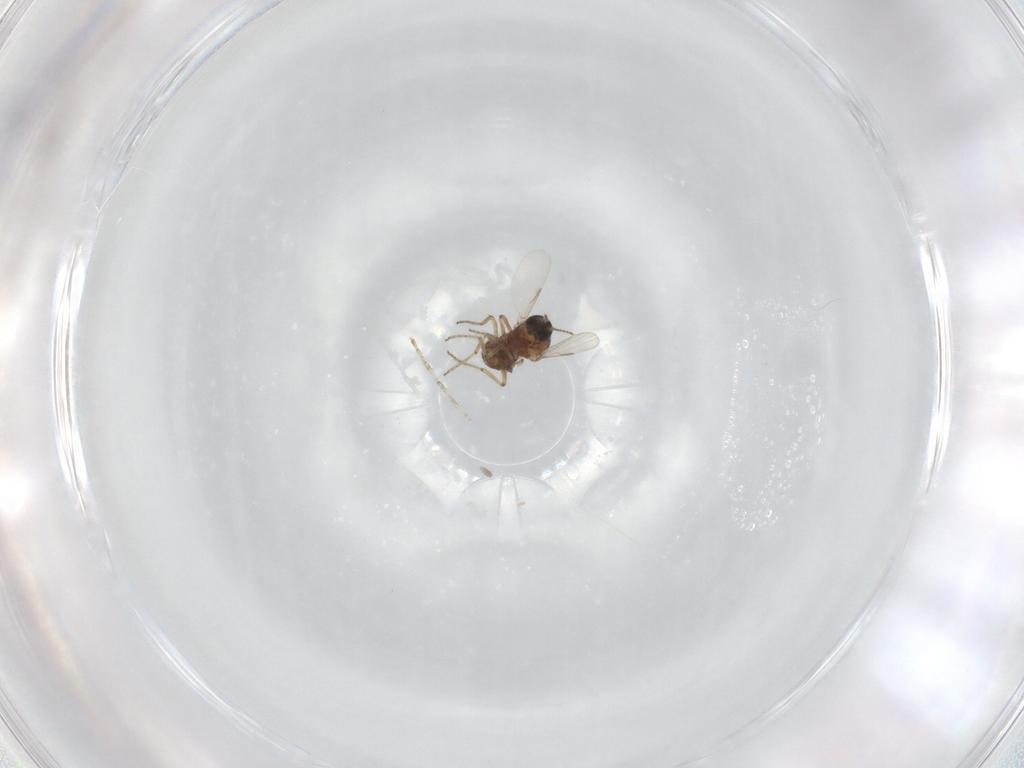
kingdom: Animalia
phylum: Arthropoda
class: Insecta
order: Diptera
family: Ceratopogonidae
